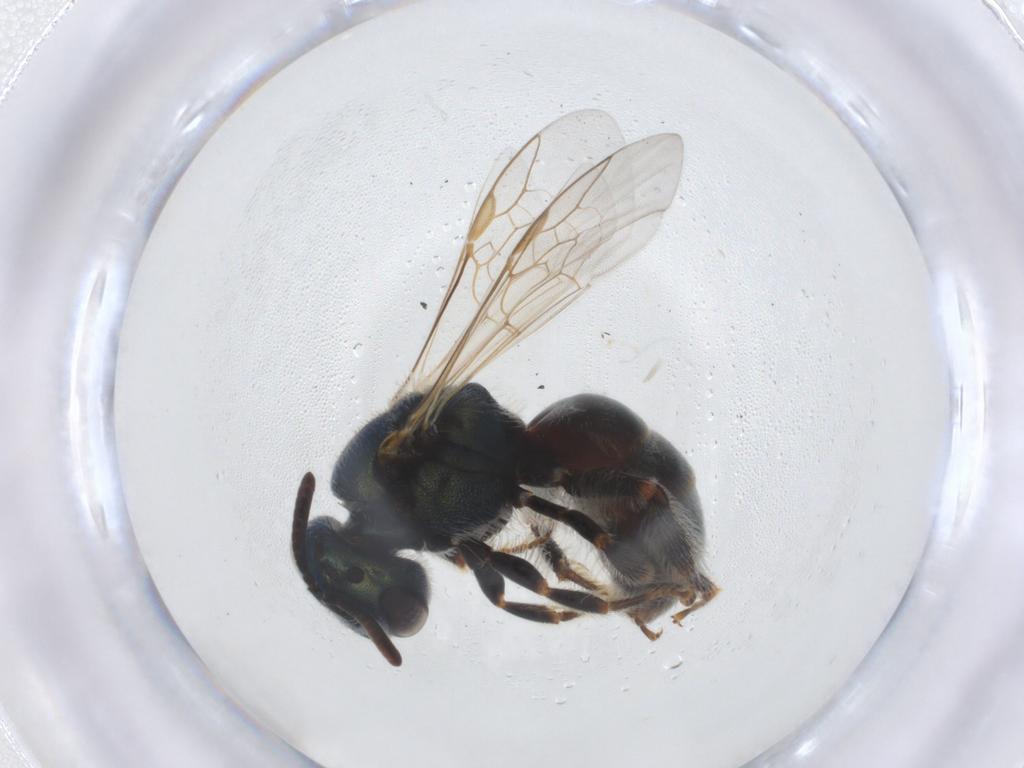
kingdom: Animalia
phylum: Arthropoda
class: Insecta
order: Hymenoptera
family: Halictidae
